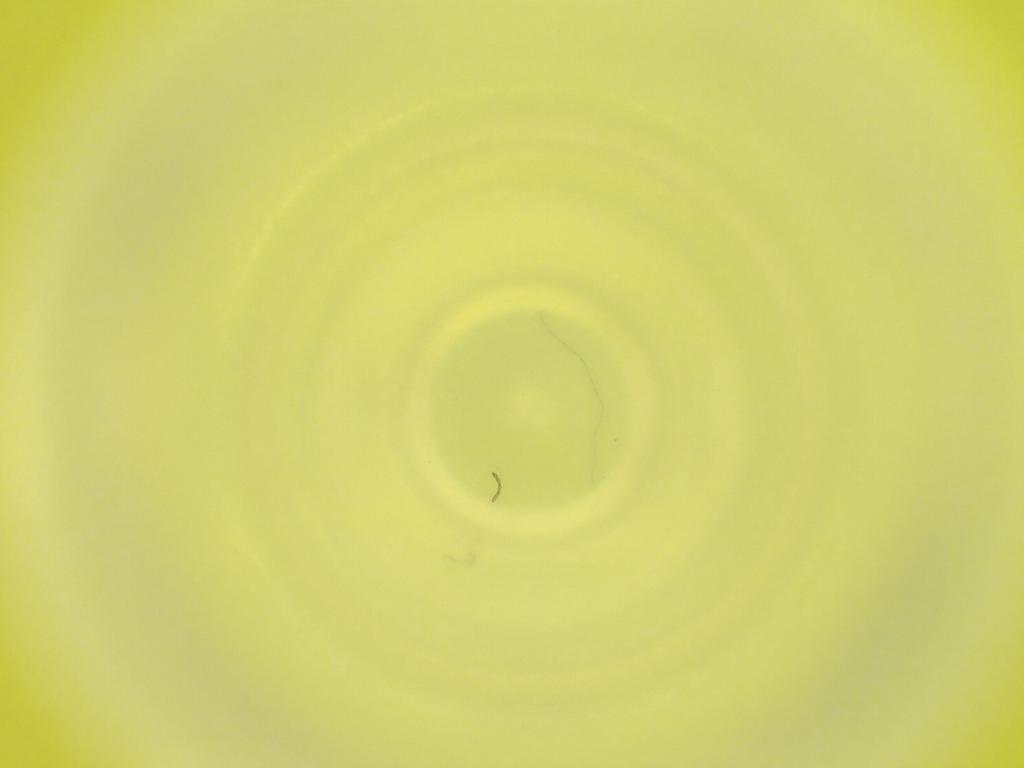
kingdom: Animalia
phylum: Arthropoda
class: Insecta
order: Diptera
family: Cecidomyiidae
